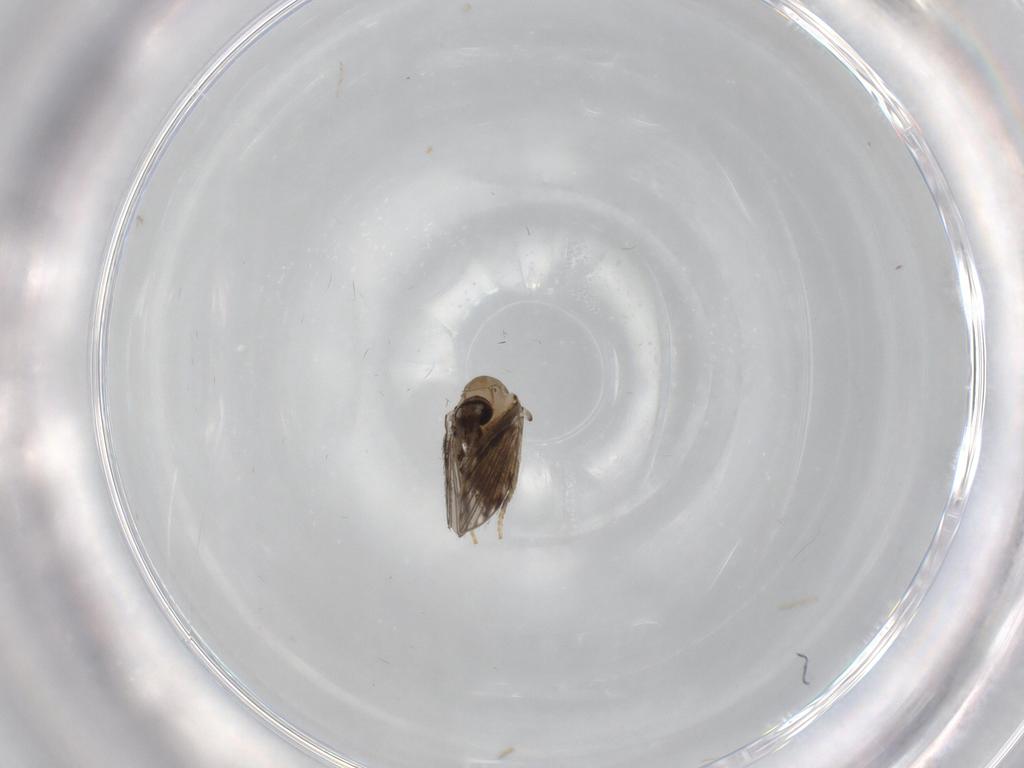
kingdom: Animalia
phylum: Arthropoda
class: Insecta
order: Diptera
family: Psychodidae
